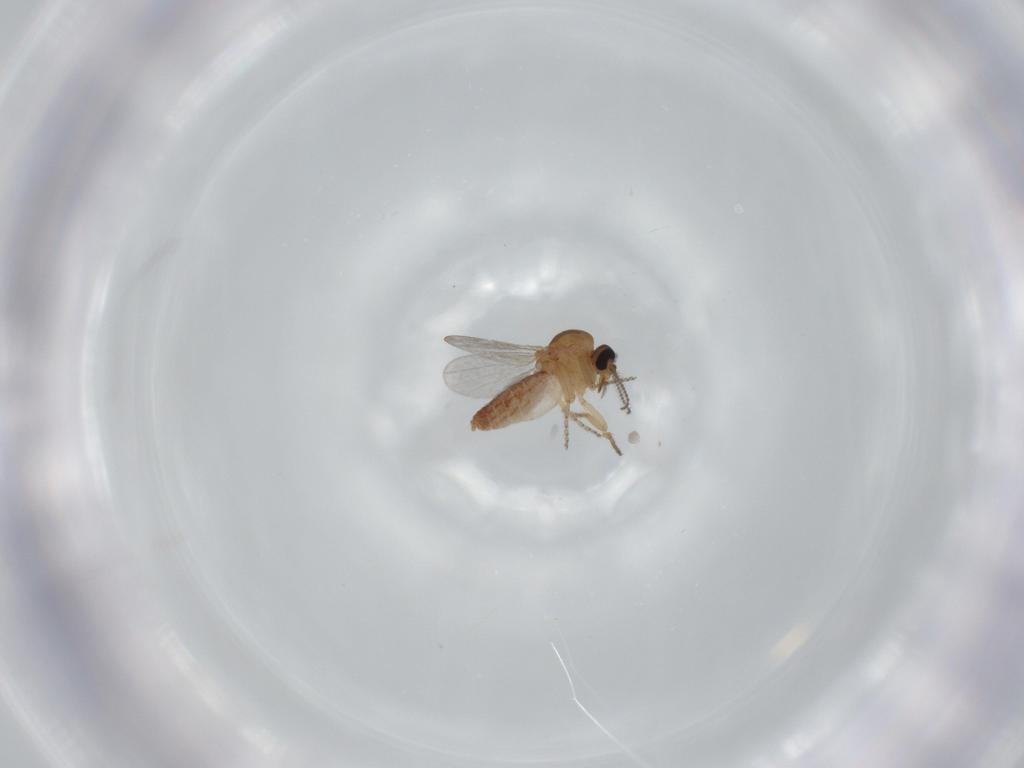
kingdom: Animalia
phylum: Arthropoda
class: Insecta
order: Diptera
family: Ceratopogonidae
